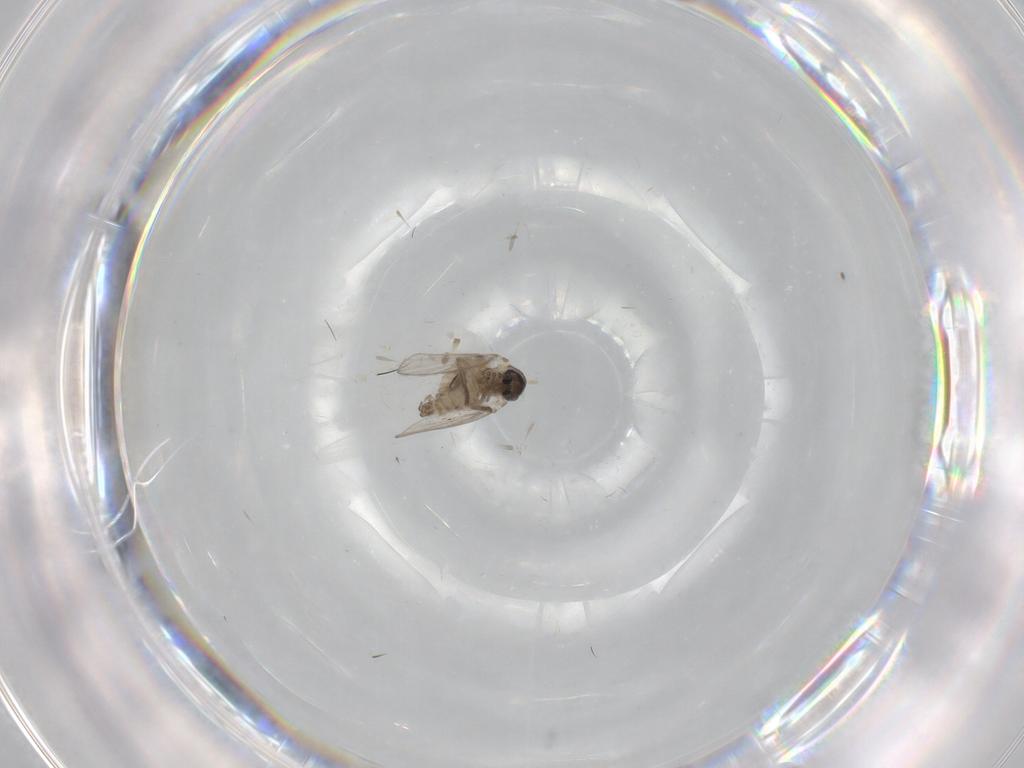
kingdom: Animalia
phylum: Arthropoda
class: Insecta
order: Diptera
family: Psychodidae
